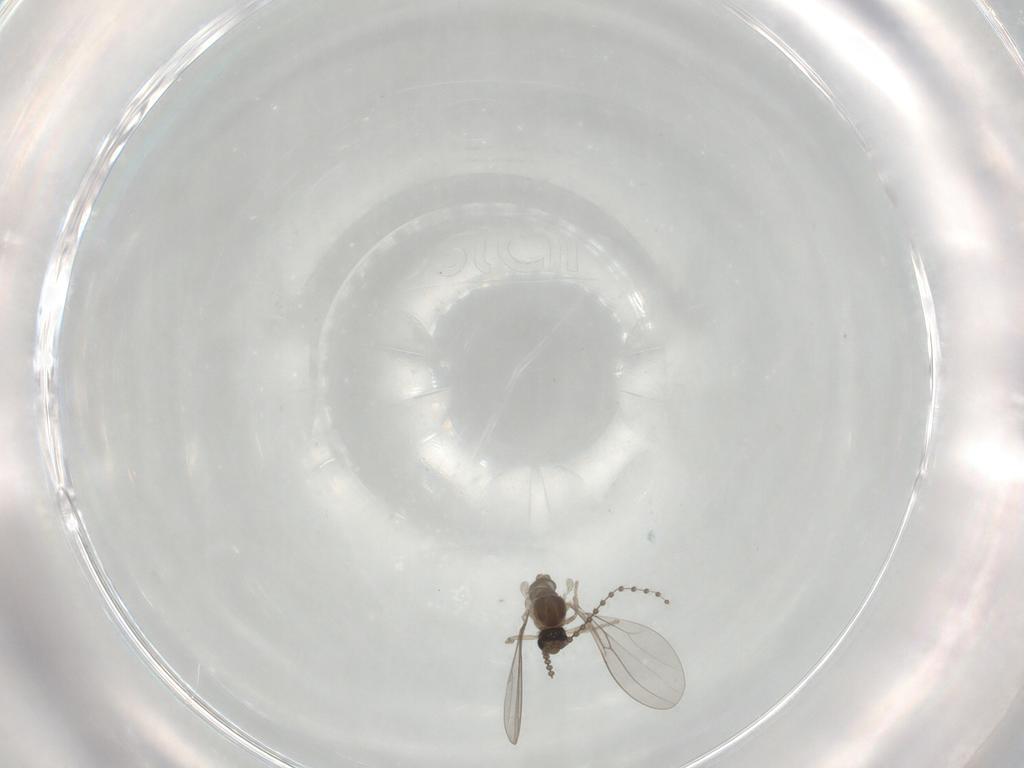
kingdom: Animalia
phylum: Arthropoda
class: Insecta
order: Diptera
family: Cecidomyiidae
